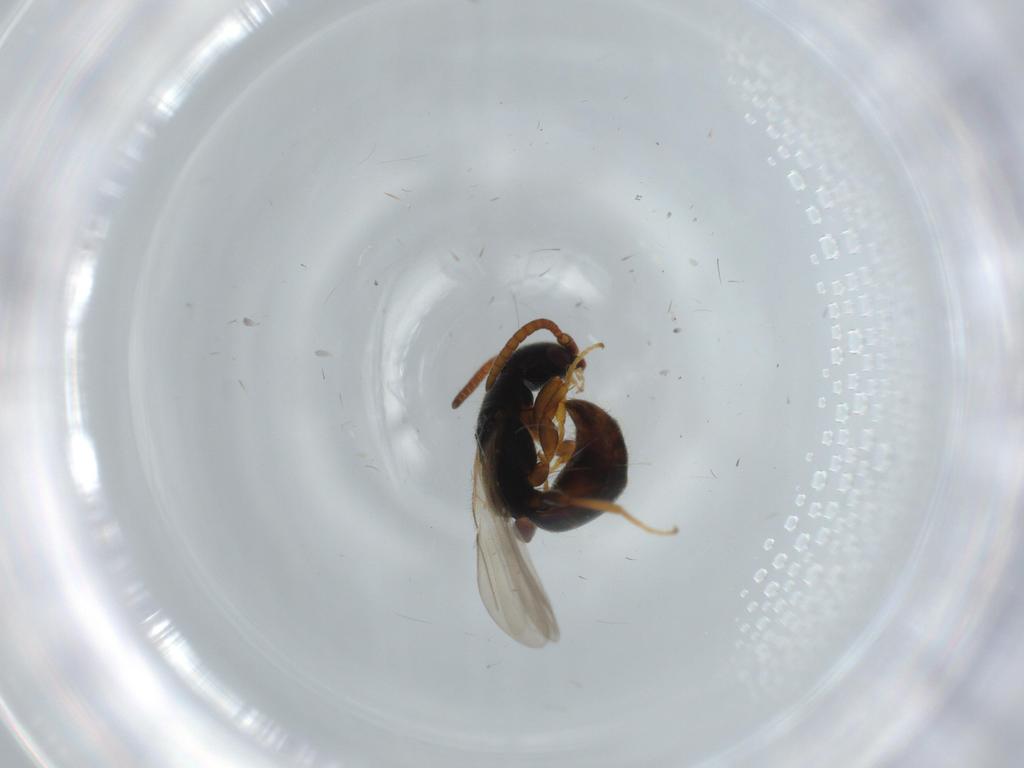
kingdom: Animalia
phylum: Arthropoda
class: Insecta
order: Hymenoptera
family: Bethylidae
